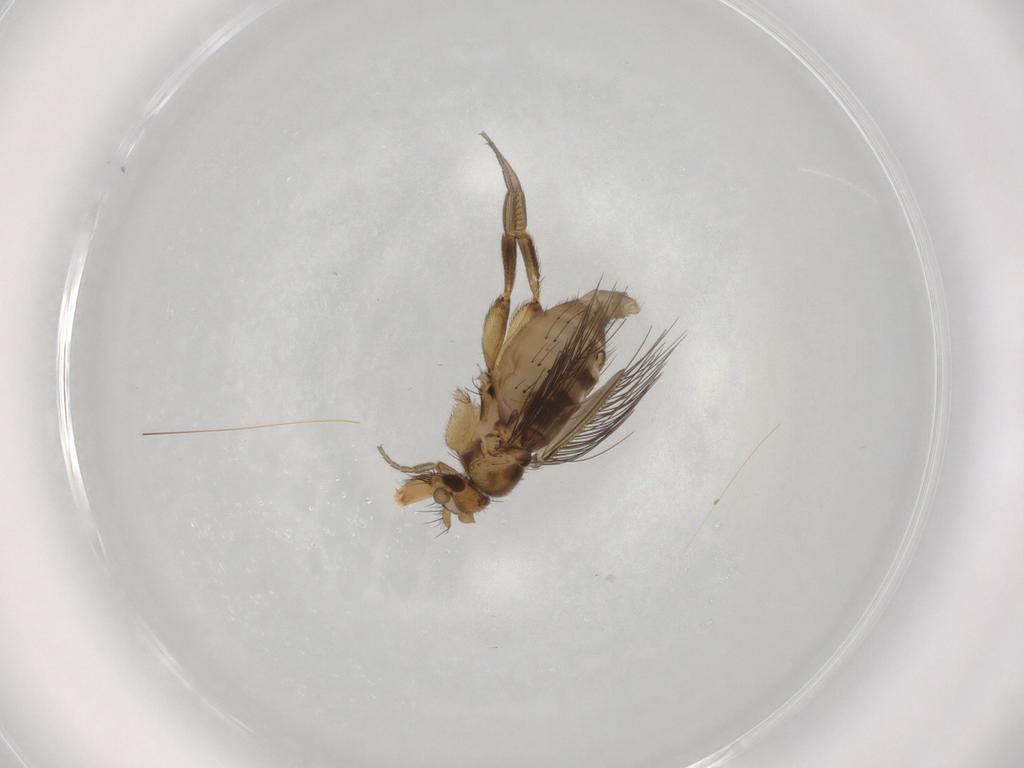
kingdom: Animalia
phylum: Arthropoda
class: Insecta
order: Diptera
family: Phoridae
